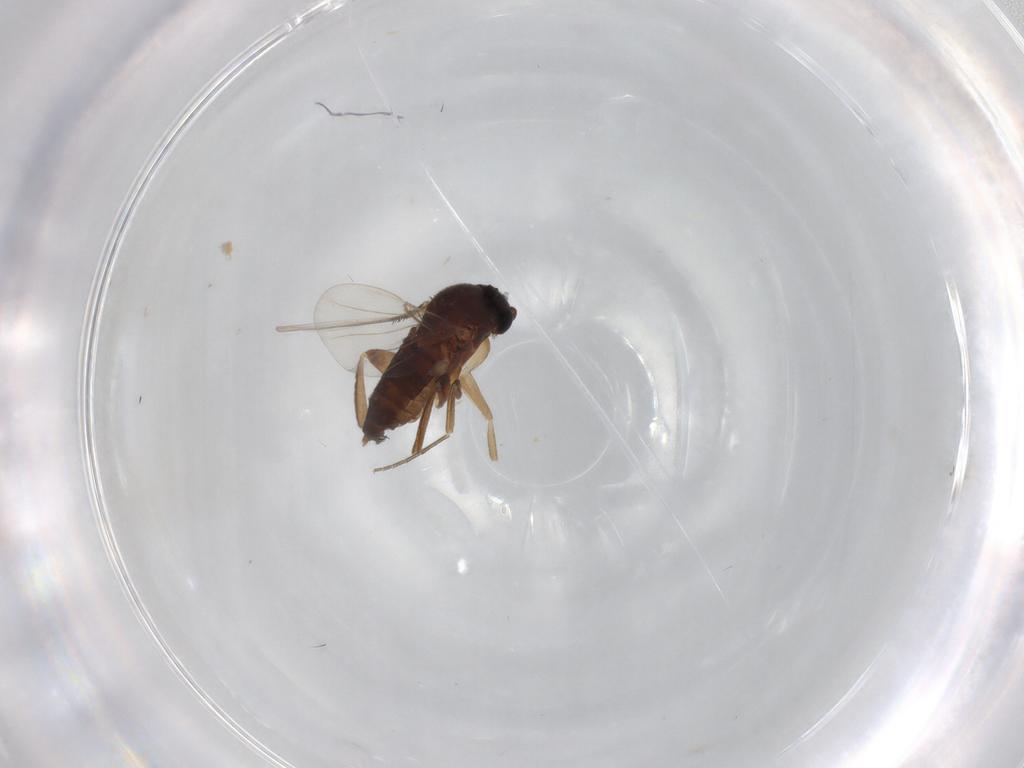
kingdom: Animalia
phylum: Arthropoda
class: Insecta
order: Diptera
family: Phoridae
